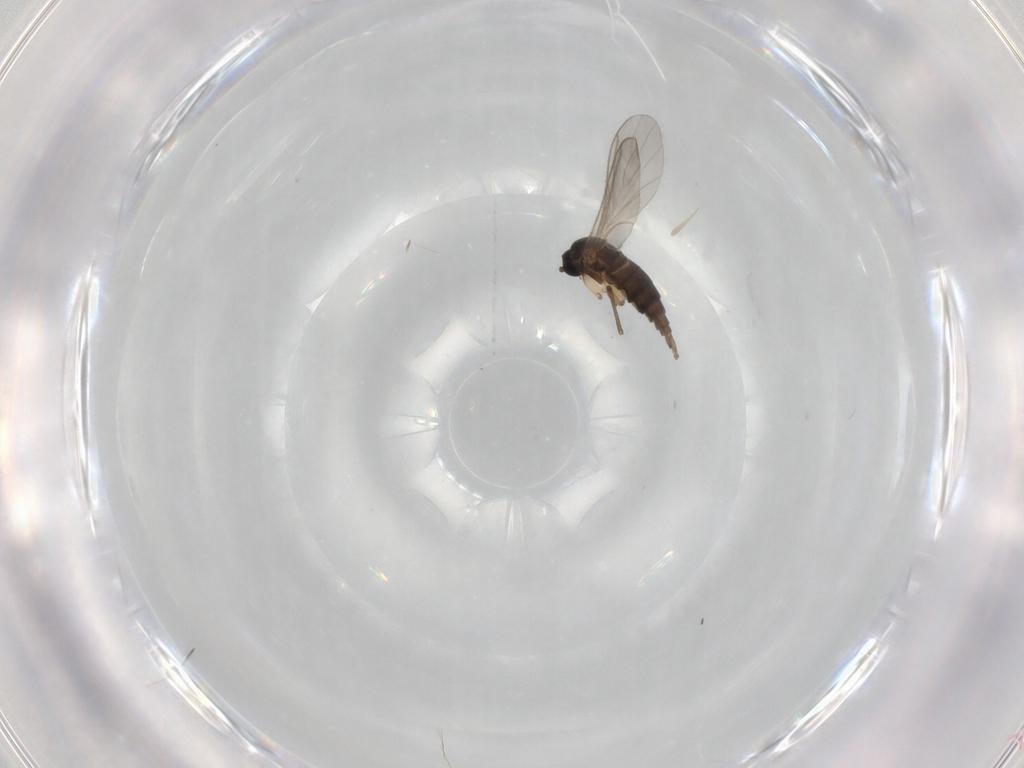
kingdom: Animalia
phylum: Arthropoda
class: Insecta
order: Diptera
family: Sciaridae
